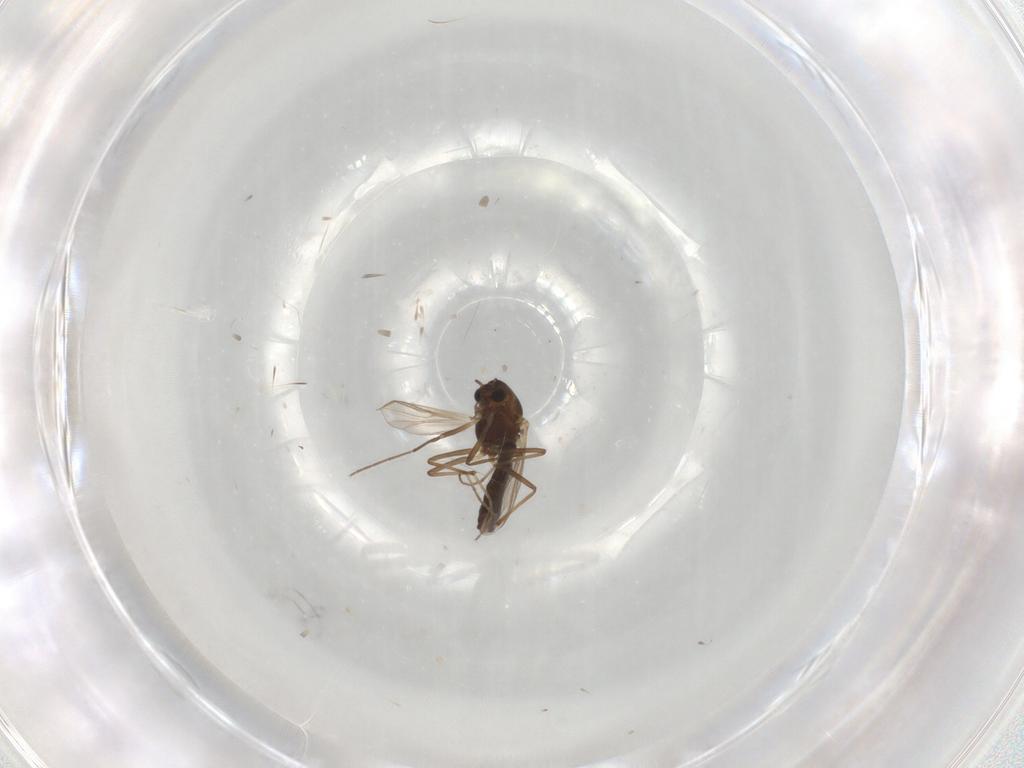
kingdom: Animalia
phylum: Arthropoda
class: Insecta
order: Diptera
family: Chironomidae
